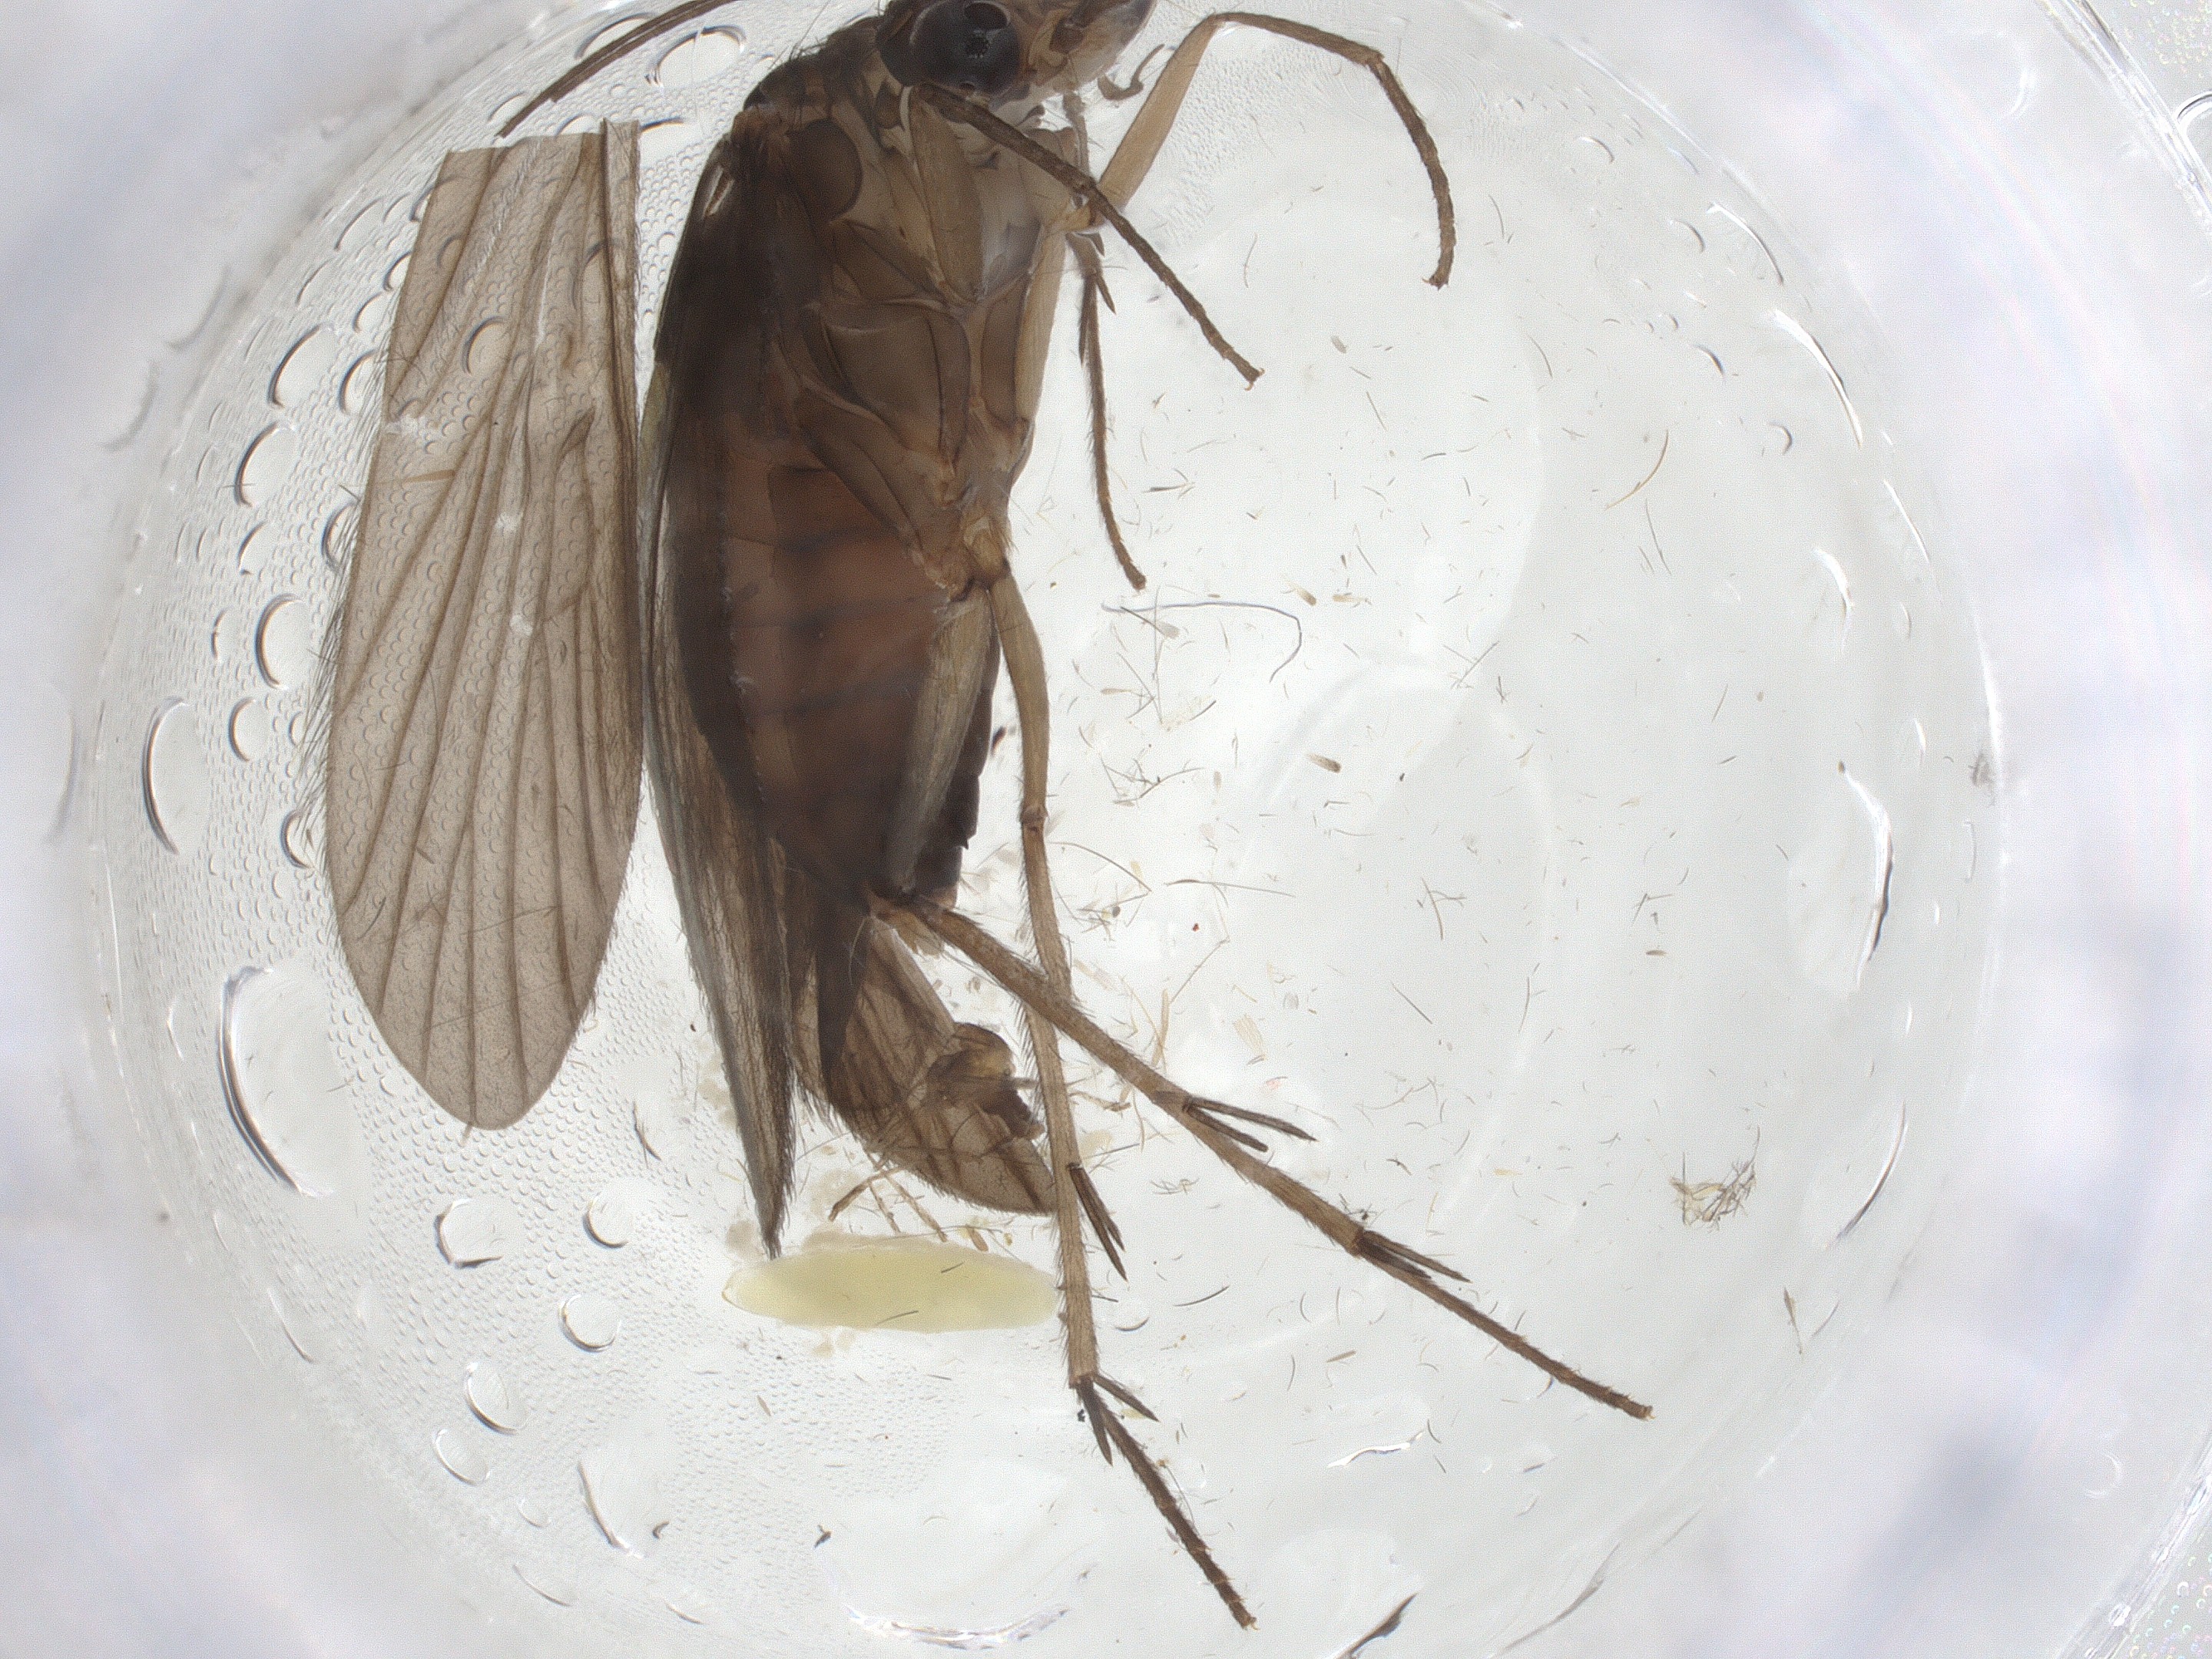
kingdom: Animalia
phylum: Arthropoda
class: Insecta
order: Trichoptera
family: Philopotamidae
